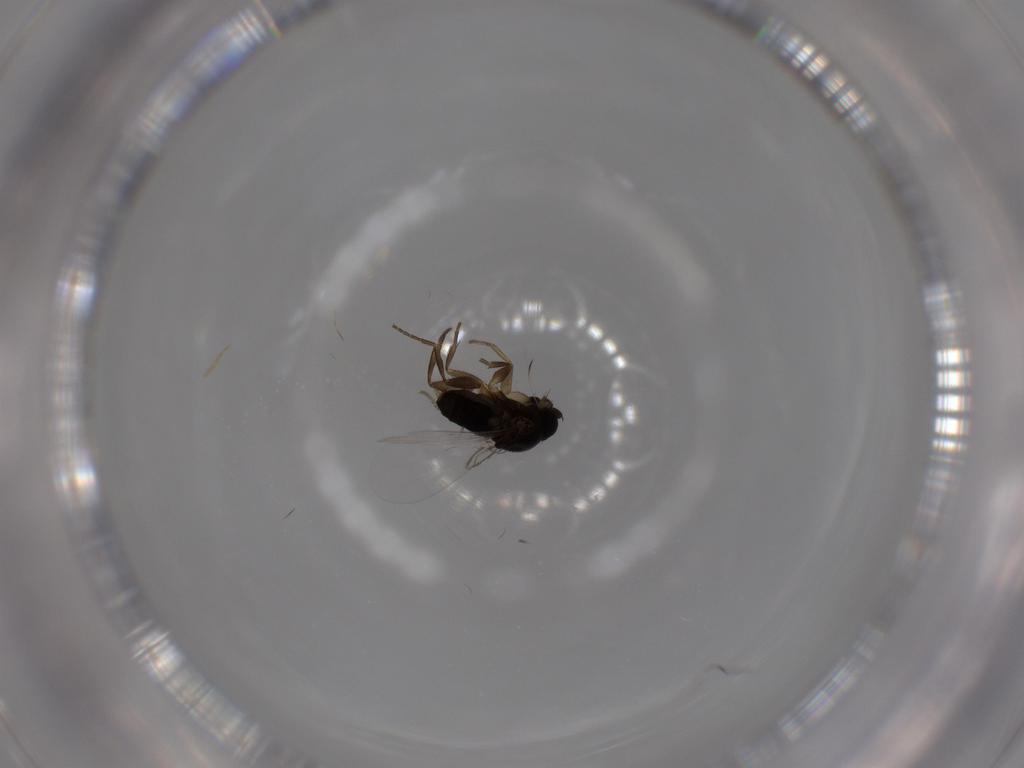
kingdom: Animalia
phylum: Arthropoda
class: Insecta
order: Diptera
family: Phoridae
